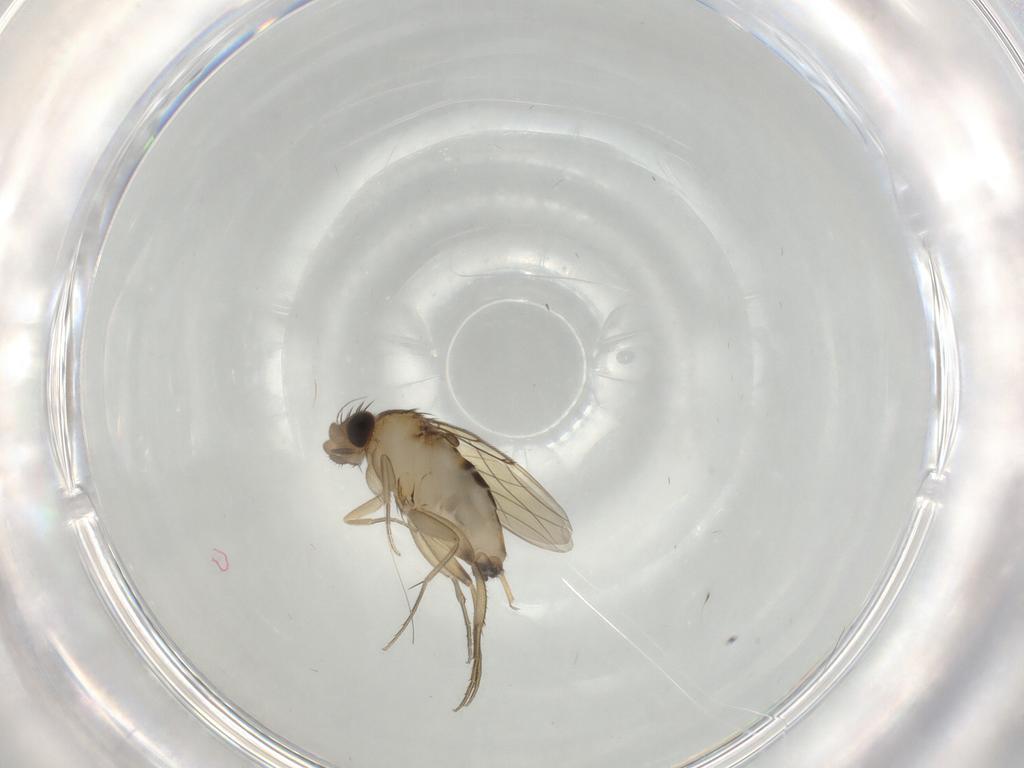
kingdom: Animalia
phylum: Arthropoda
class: Insecta
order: Diptera
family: Phoridae
